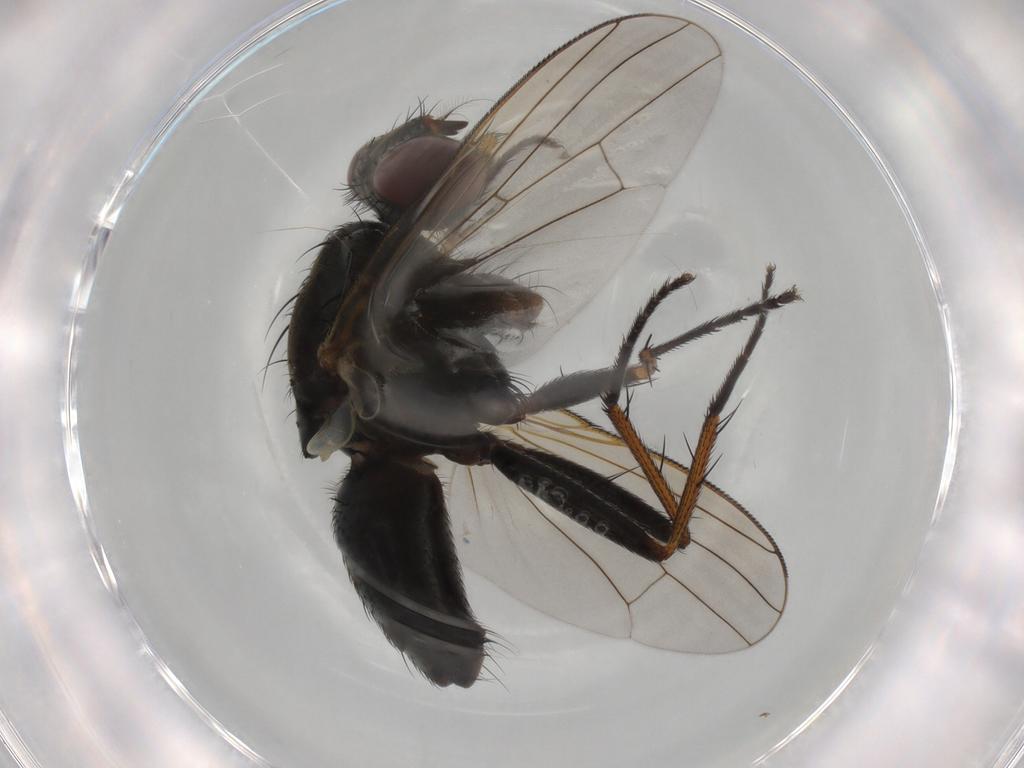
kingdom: Animalia
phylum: Arthropoda
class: Insecta
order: Diptera
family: Muscidae
